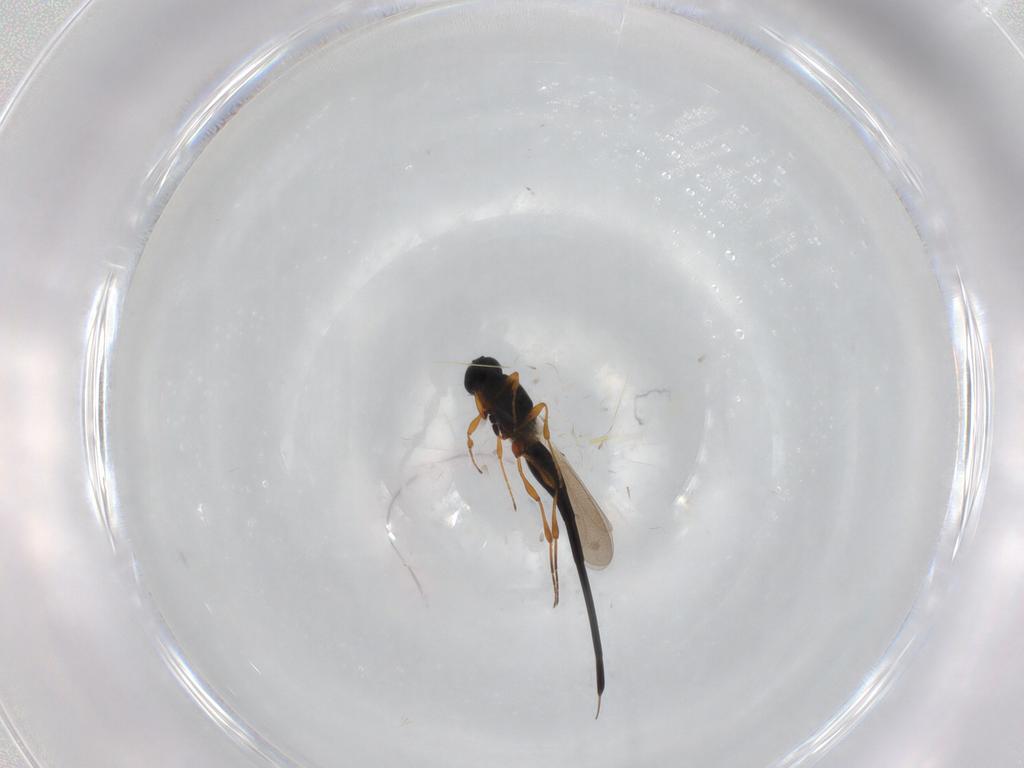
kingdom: Animalia
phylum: Arthropoda
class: Insecta
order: Hymenoptera
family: Platygastridae
